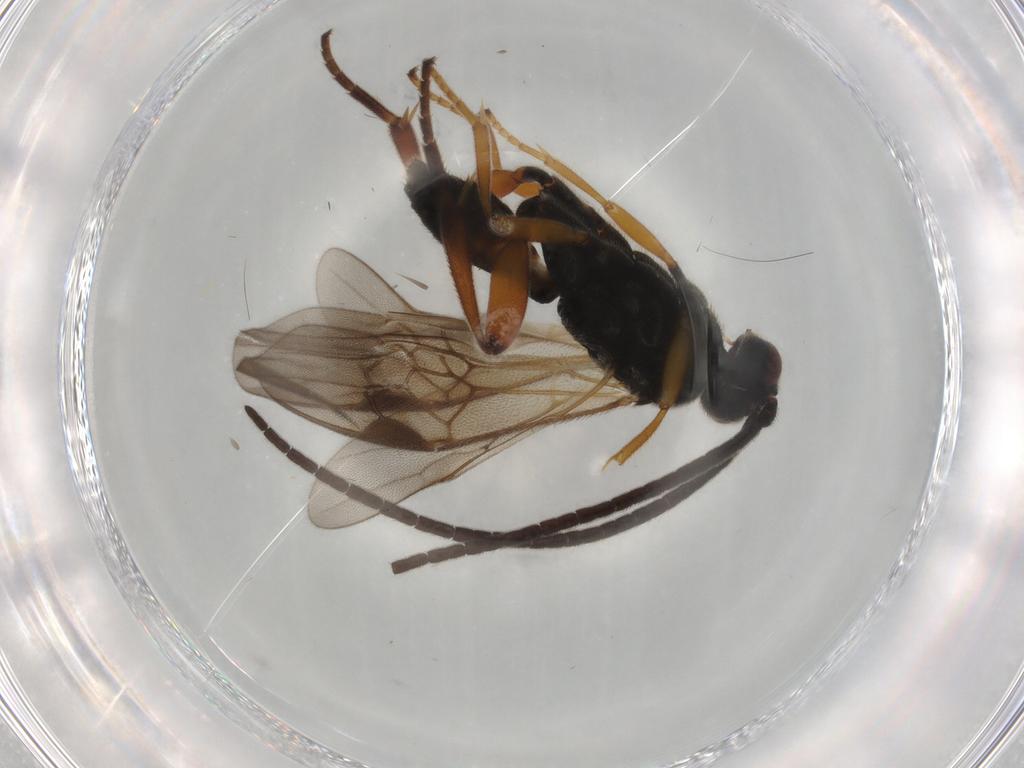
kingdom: Animalia
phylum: Arthropoda
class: Insecta
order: Hymenoptera
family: Braconidae
